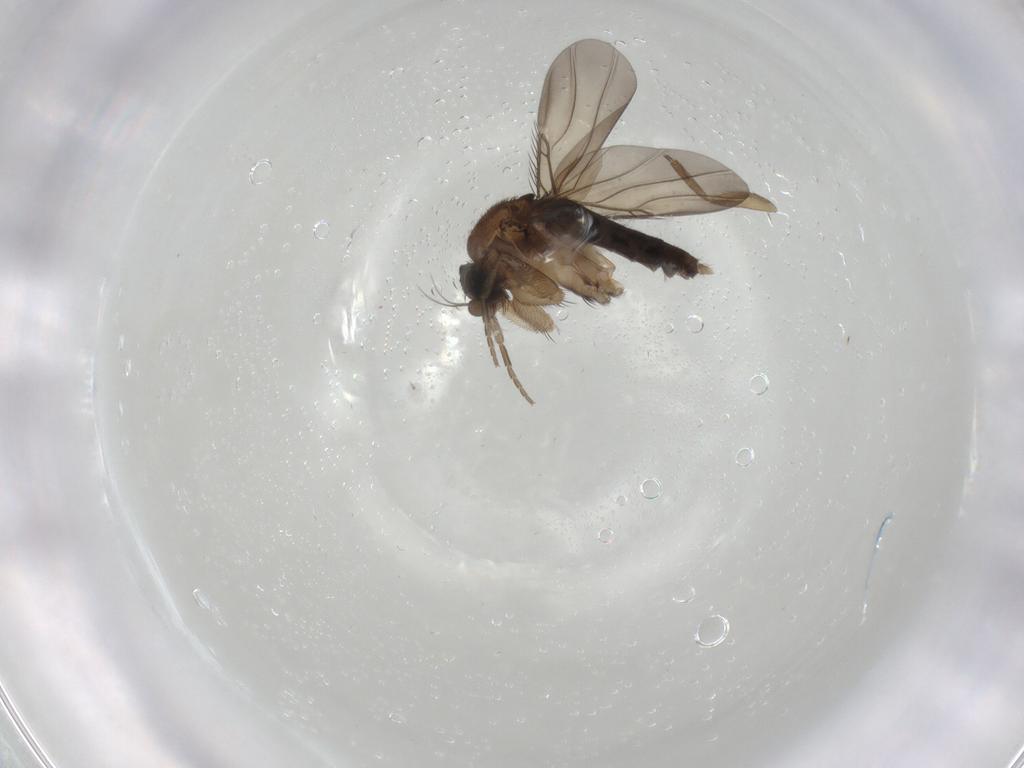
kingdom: Animalia
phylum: Arthropoda
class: Insecta
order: Diptera
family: Phoridae
